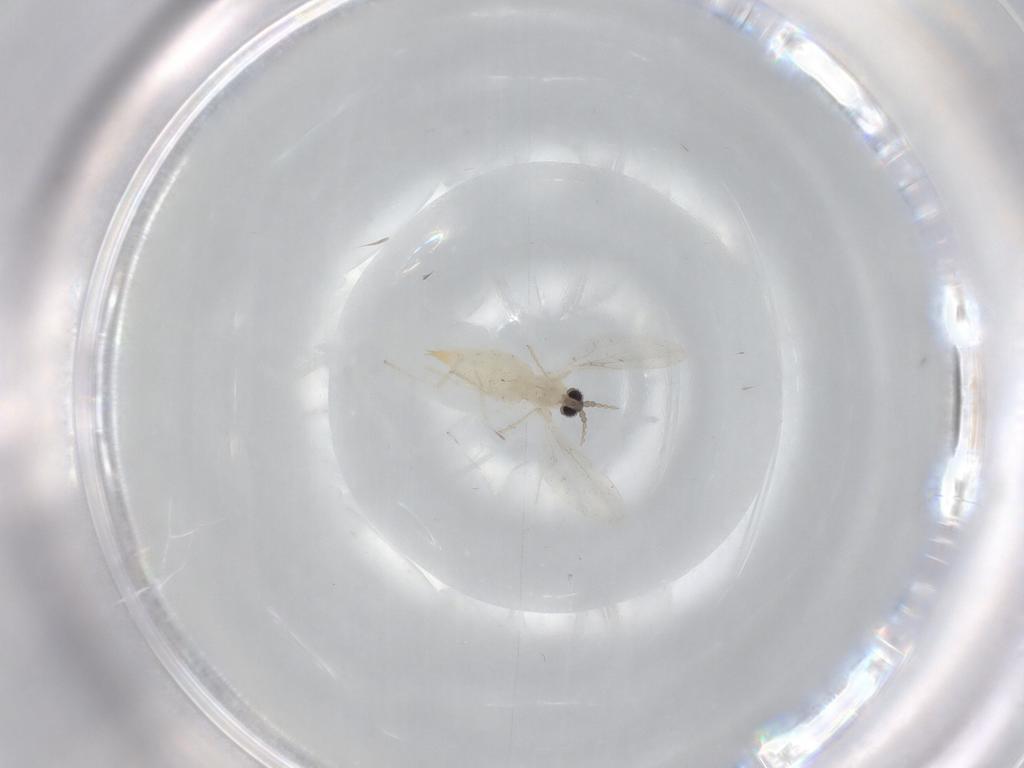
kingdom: Animalia
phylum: Arthropoda
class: Insecta
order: Diptera
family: Cecidomyiidae
